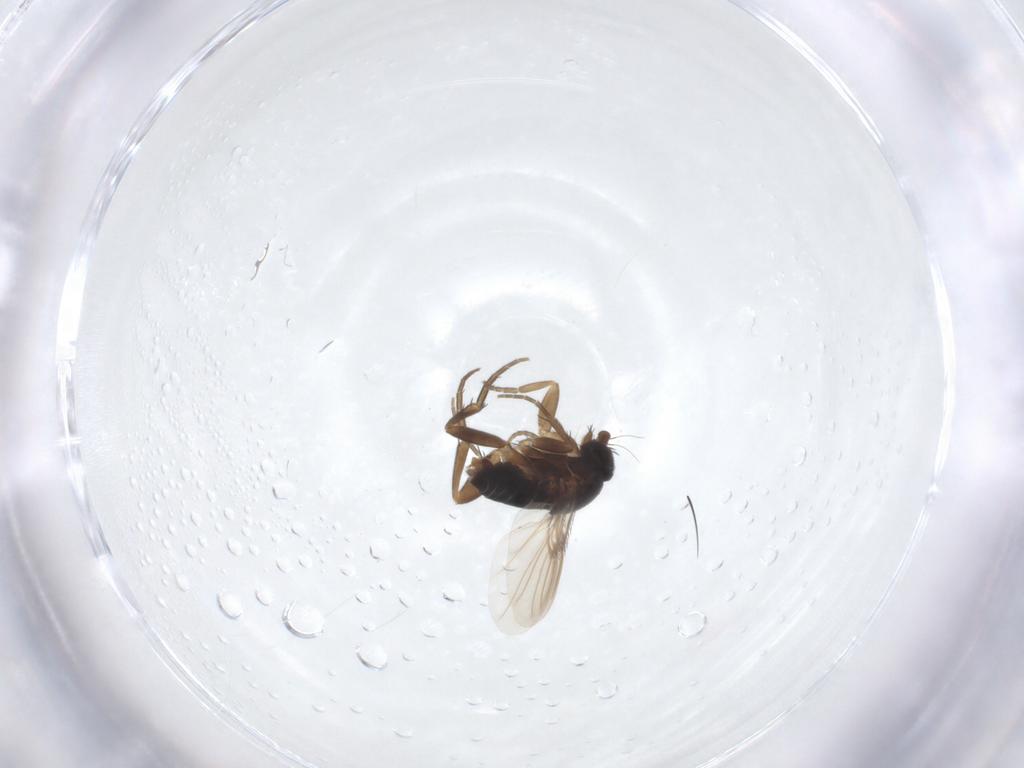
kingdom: Animalia
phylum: Arthropoda
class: Insecta
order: Diptera
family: Phoridae
